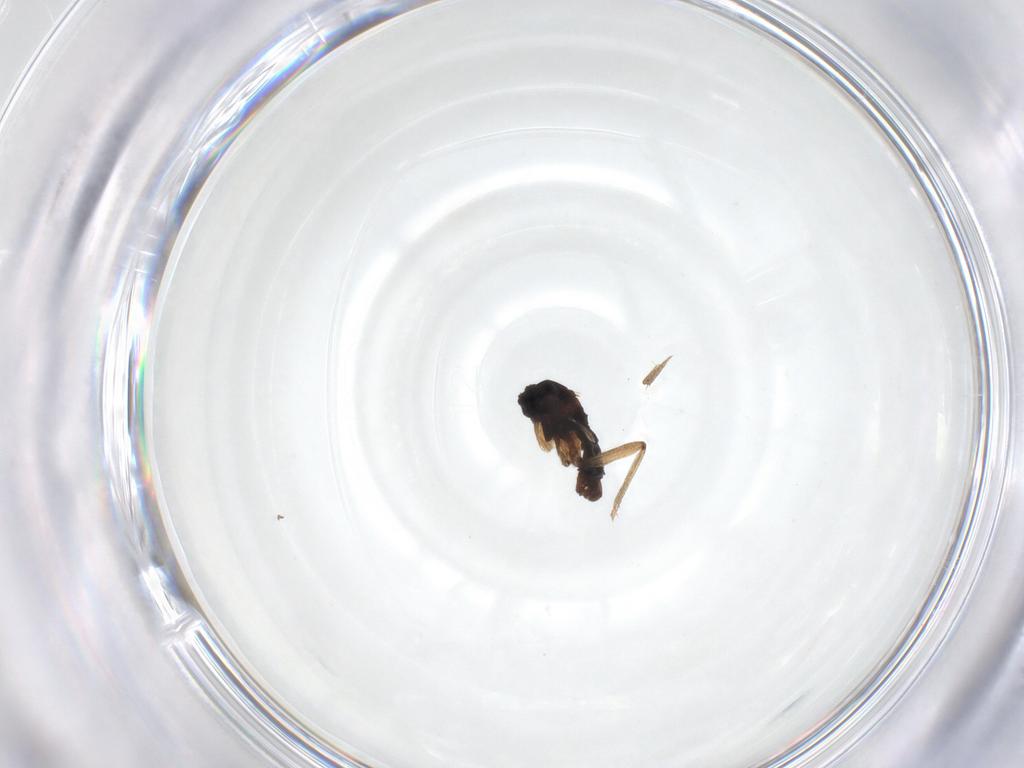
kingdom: Animalia
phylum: Arthropoda
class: Insecta
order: Diptera
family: Sciaridae
